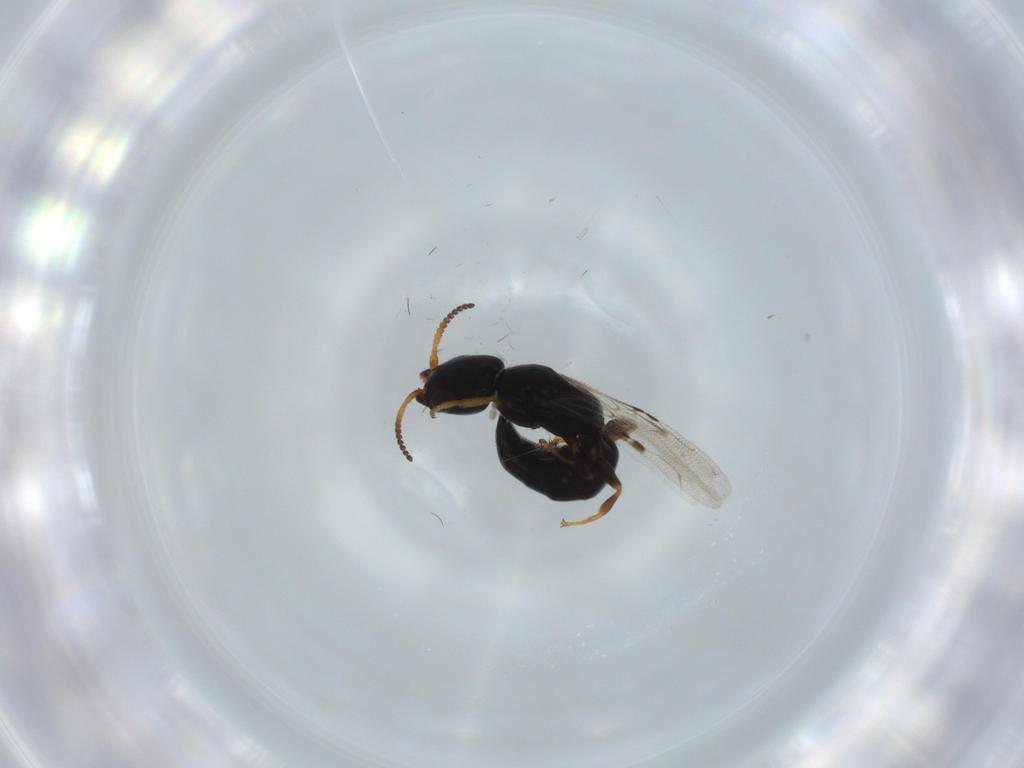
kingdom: Animalia
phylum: Arthropoda
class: Insecta
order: Hymenoptera
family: Bethylidae
